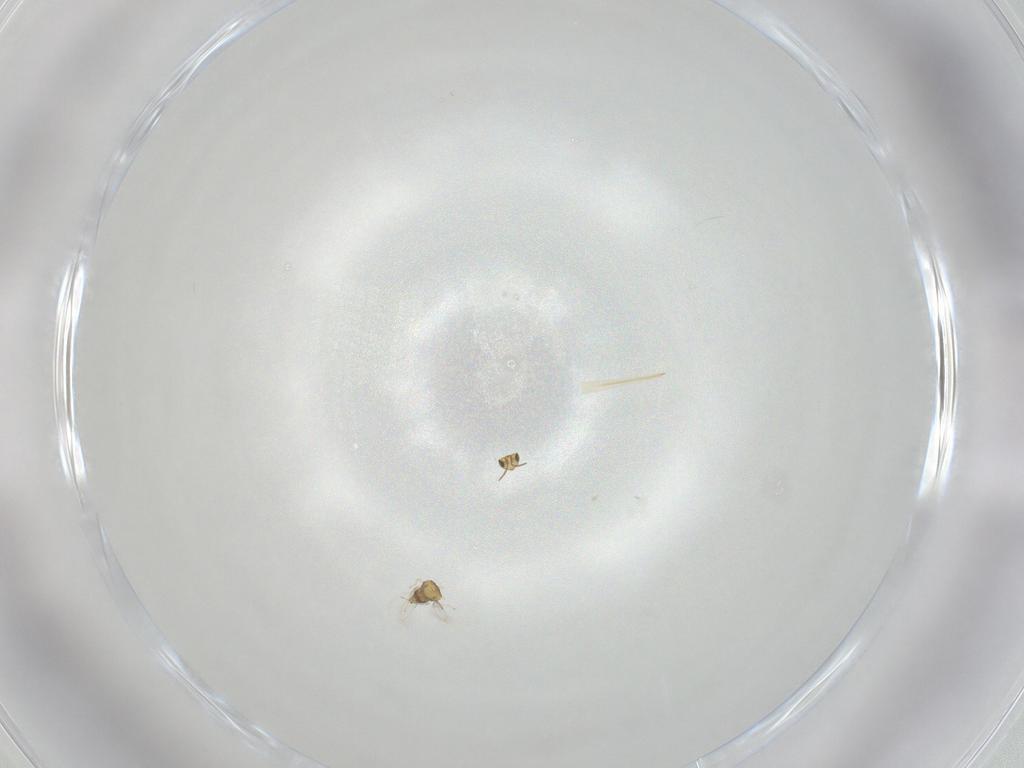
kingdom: Animalia
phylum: Arthropoda
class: Insecta
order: Hymenoptera
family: Aphelinidae
